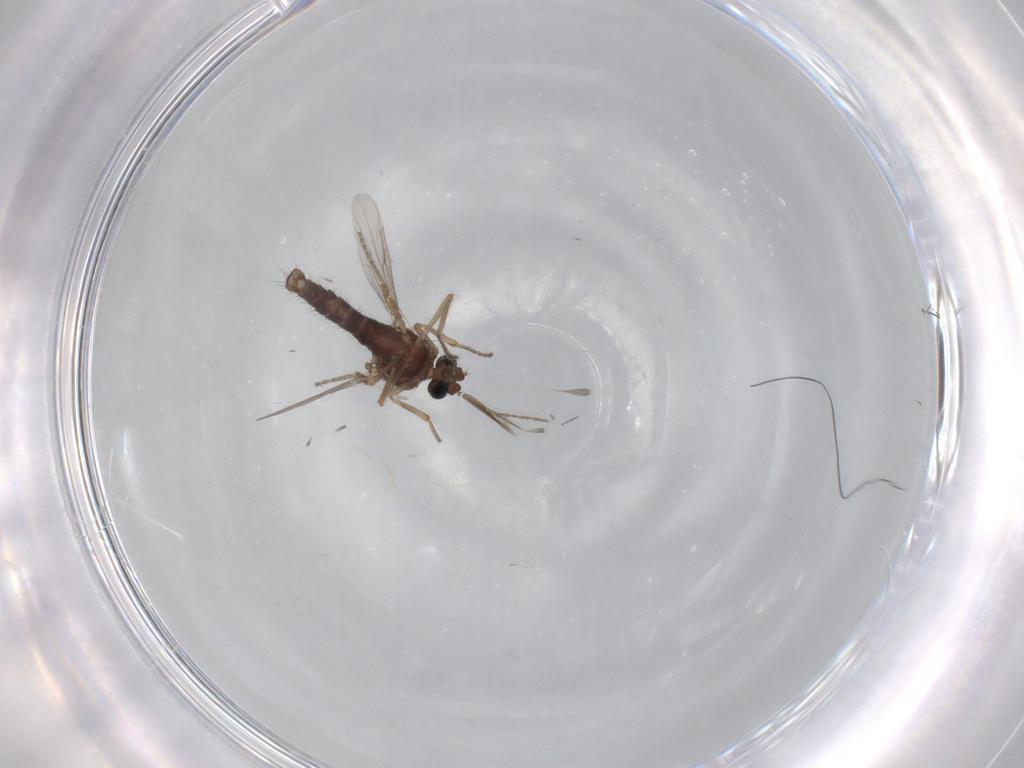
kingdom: Animalia
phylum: Arthropoda
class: Insecta
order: Diptera
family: Ceratopogonidae
